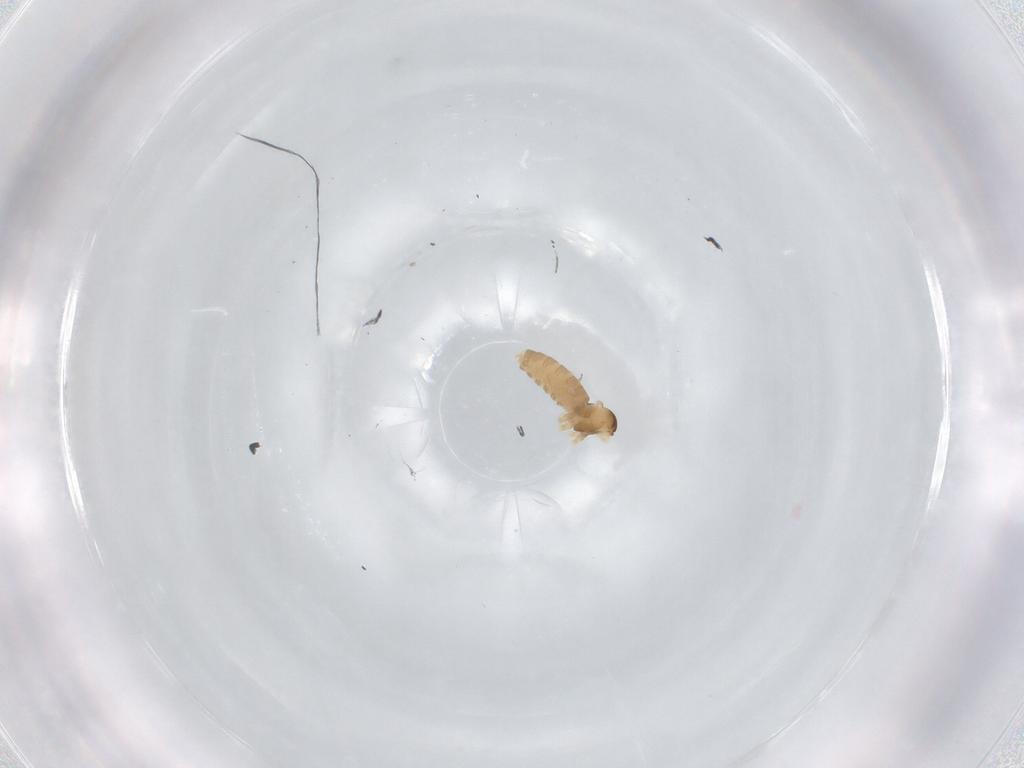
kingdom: Animalia
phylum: Arthropoda
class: Insecta
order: Diptera
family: Cecidomyiidae
